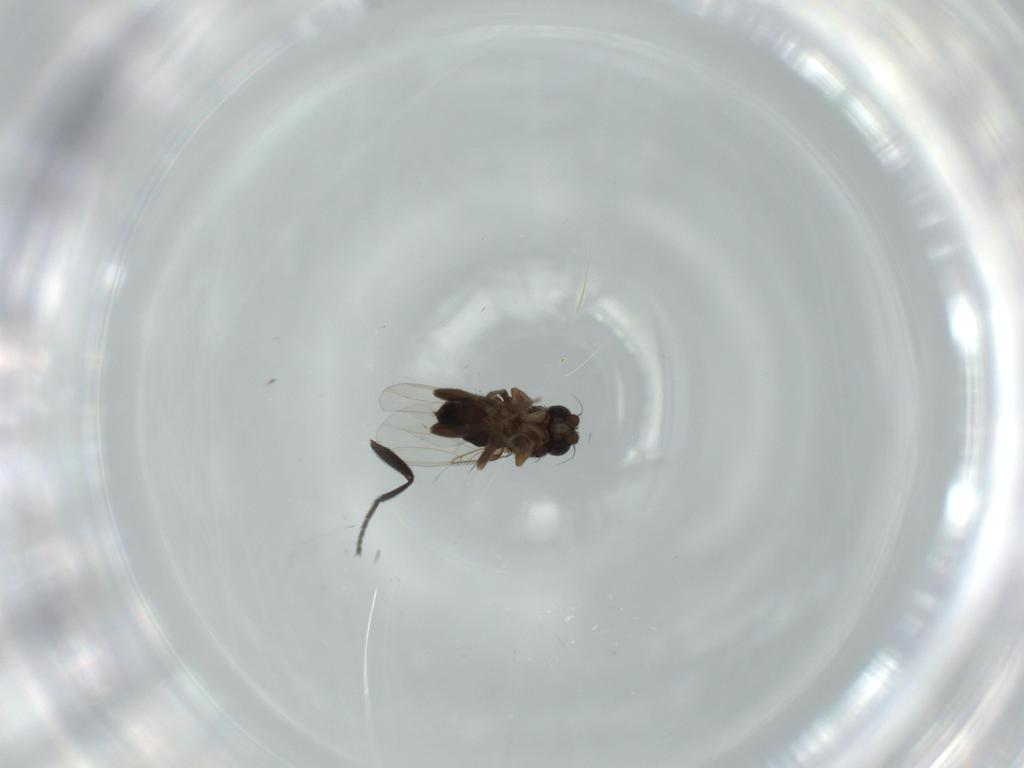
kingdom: Animalia
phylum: Arthropoda
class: Insecta
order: Diptera
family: Milichiidae
